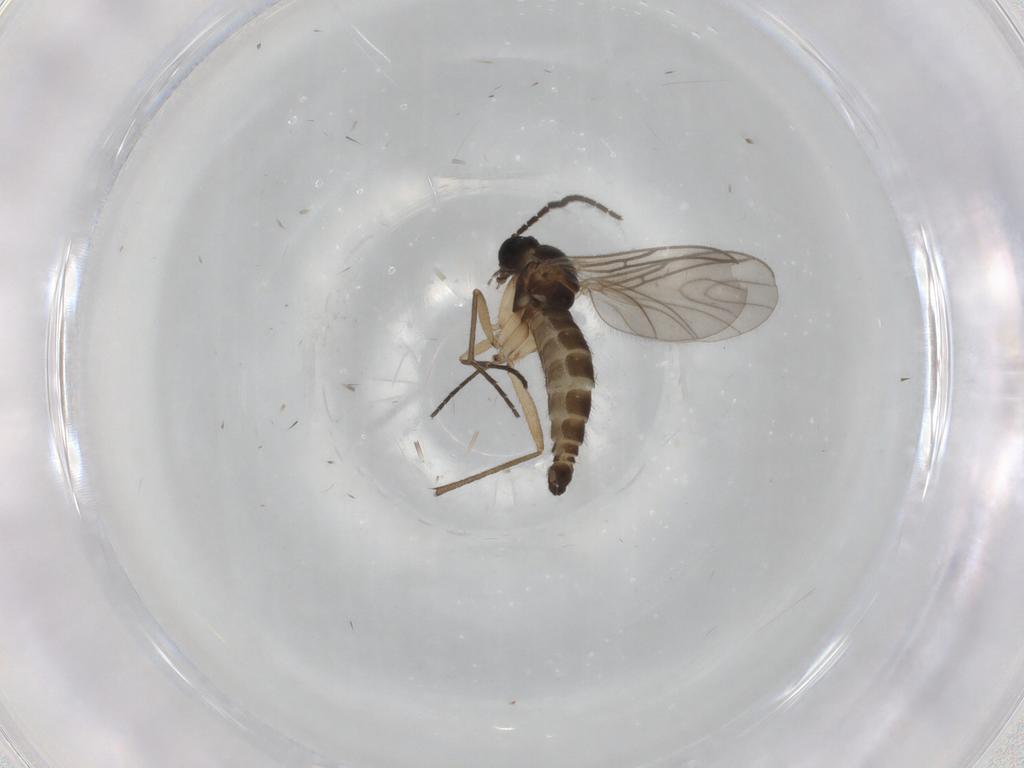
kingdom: Animalia
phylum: Arthropoda
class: Insecta
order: Diptera
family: Sciaridae
